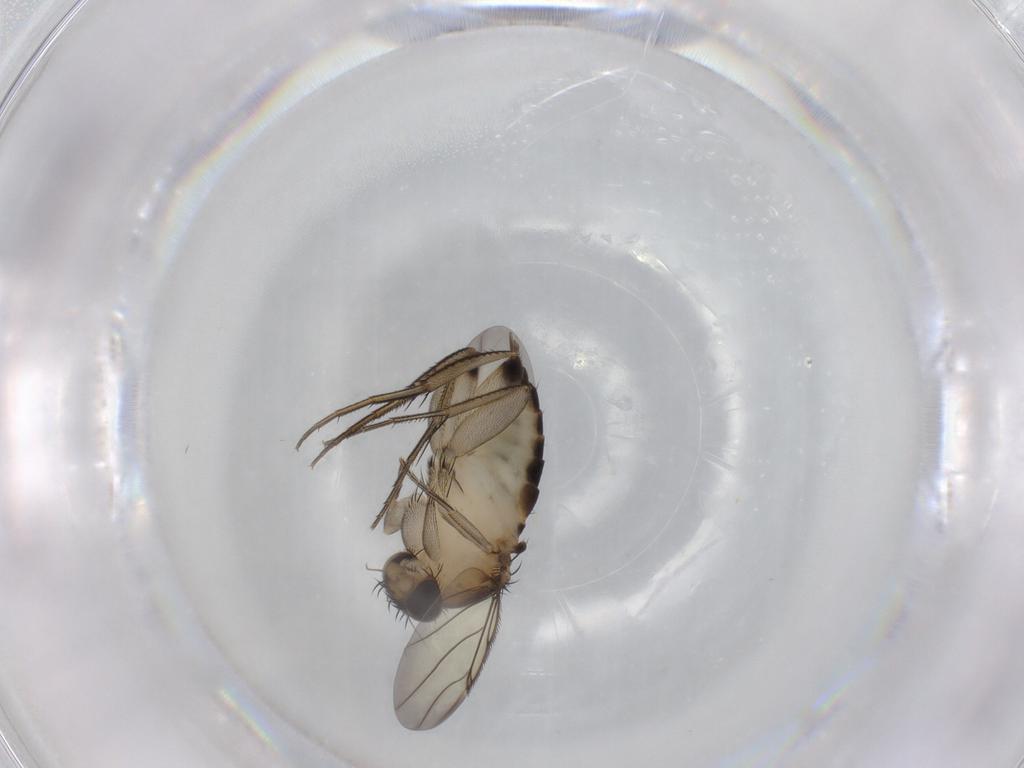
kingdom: Animalia
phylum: Arthropoda
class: Insecta
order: Diptera
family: Phoridae
